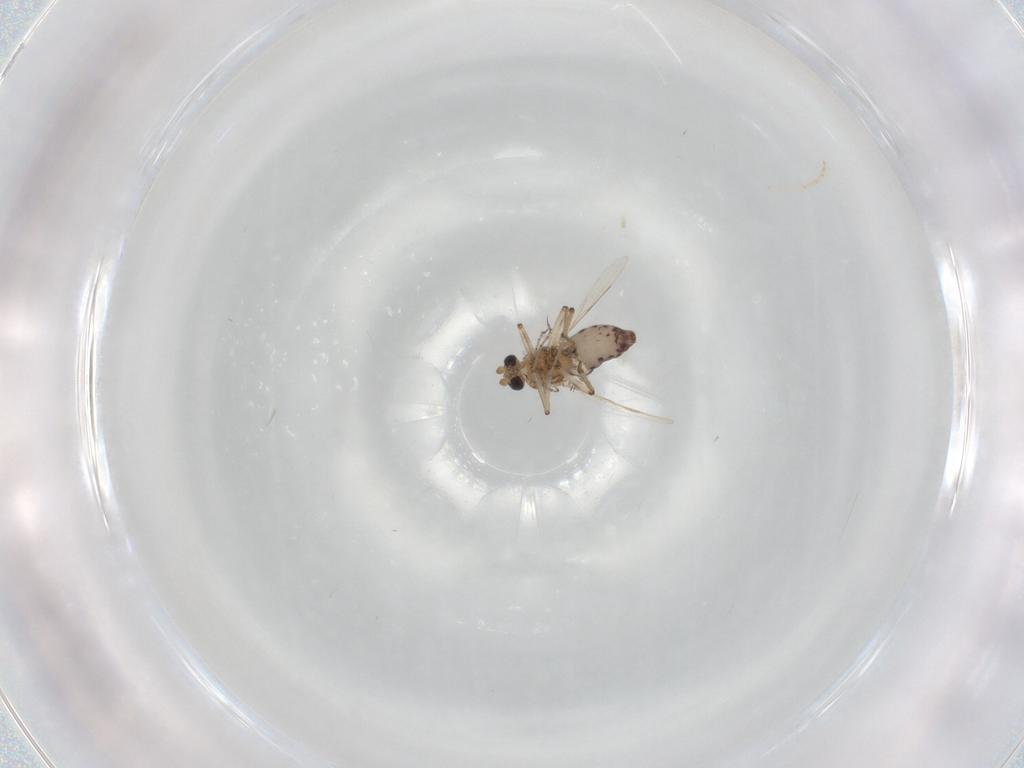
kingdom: Animalia
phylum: Arthropoda
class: Insecta
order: Diptera
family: Ceratopogonidae
